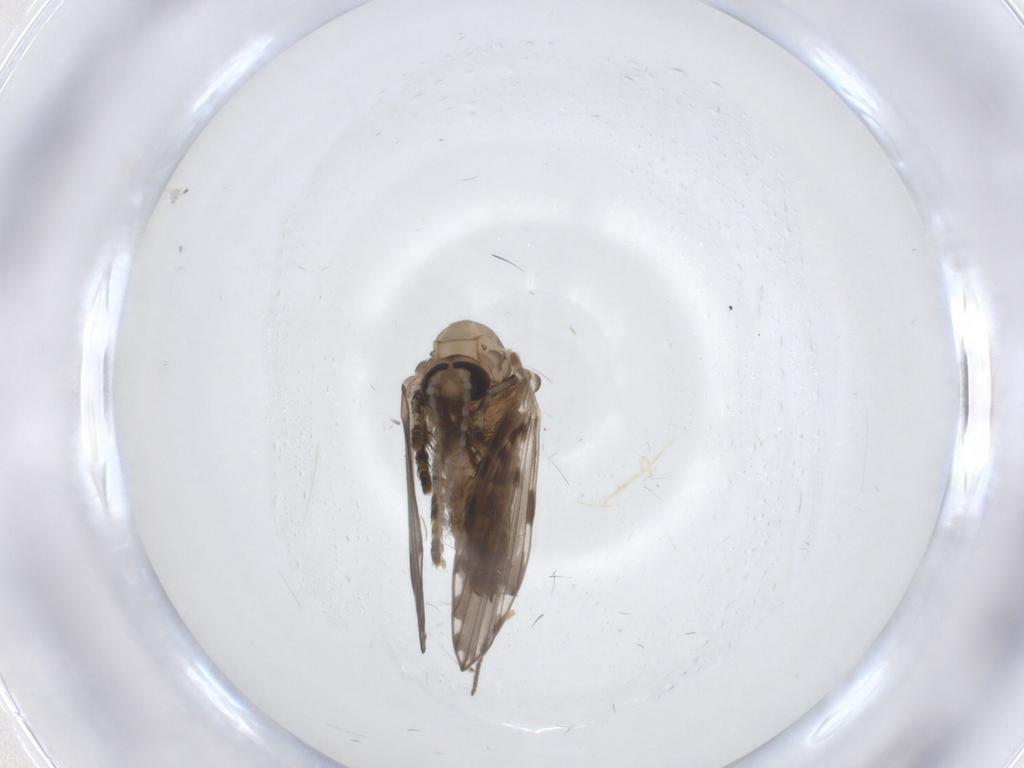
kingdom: Animalia
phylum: Arthropoda
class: Insecta
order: Diptera
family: Psychodidae
